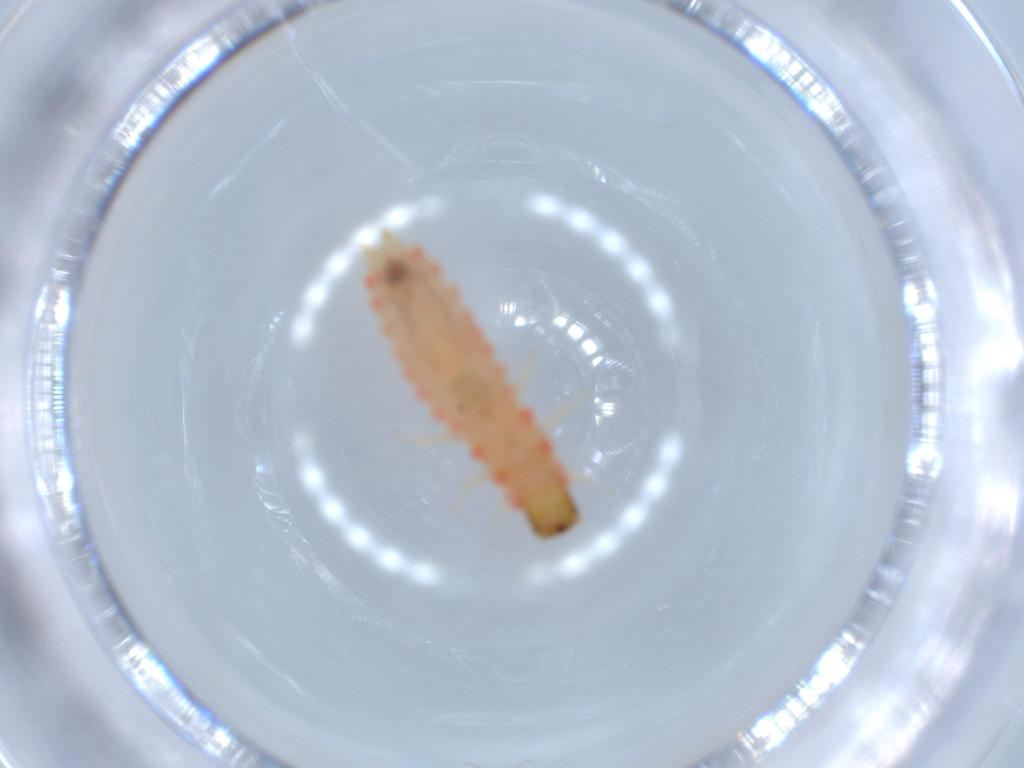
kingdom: Animalia
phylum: Arthropoda
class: Insecta
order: Coleoptera
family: Melyridae
